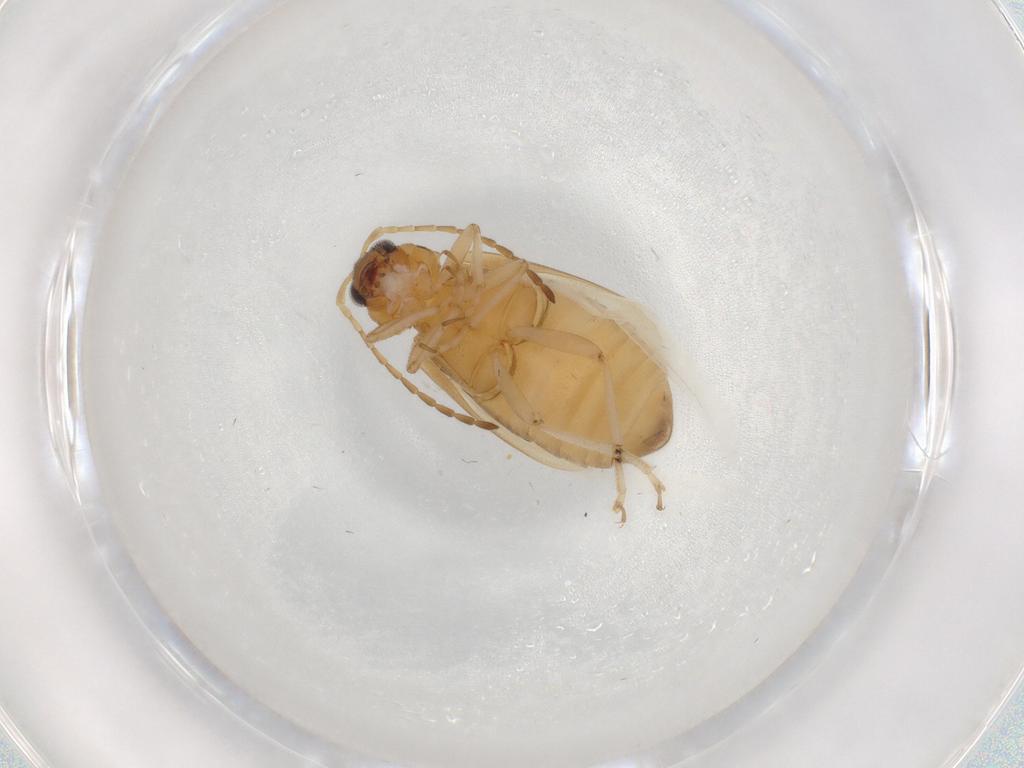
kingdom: Animalia
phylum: Arthropoda
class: Insecta
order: Coleoptera
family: Chrysomelidae
